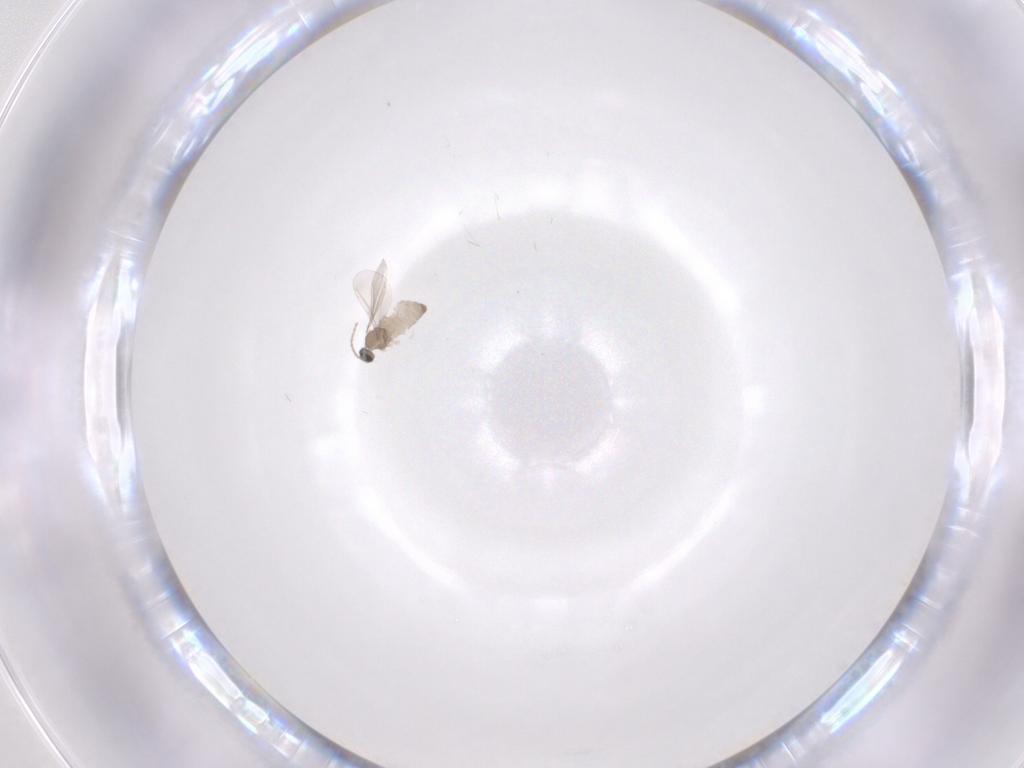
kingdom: Animalia
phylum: Arthropoda
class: Insecta
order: Diptera
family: Cecidomyiidae
